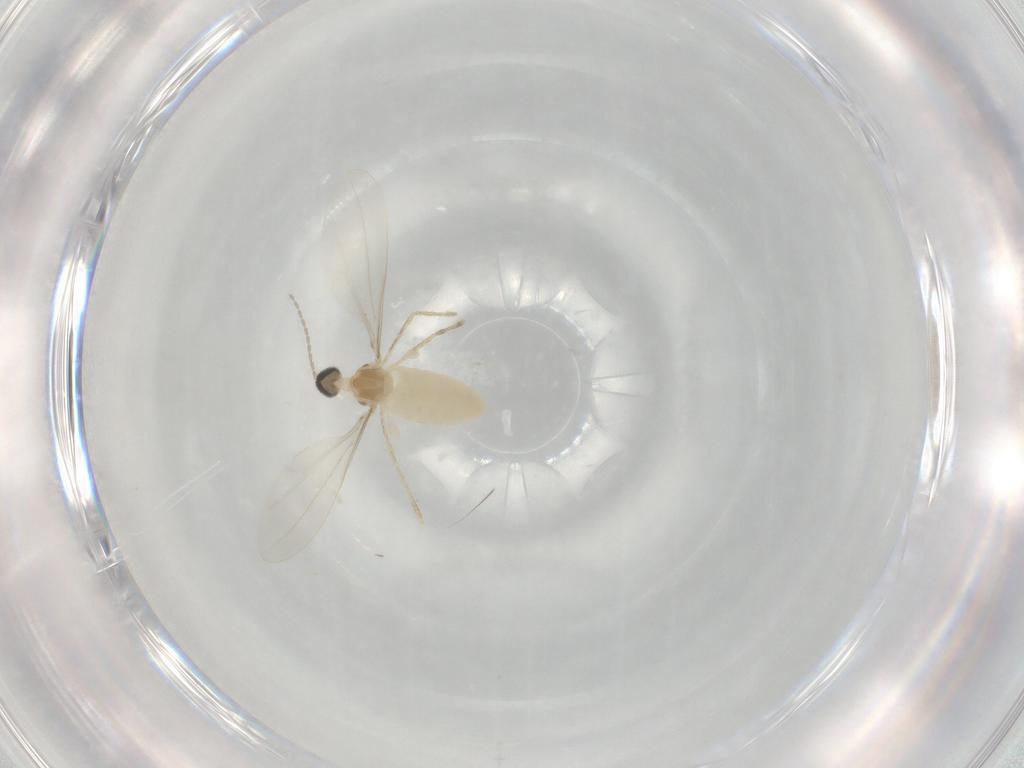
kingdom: Animalia
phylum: Arthropoda
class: Insecta
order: Diptera
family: Cecidomyiidae
